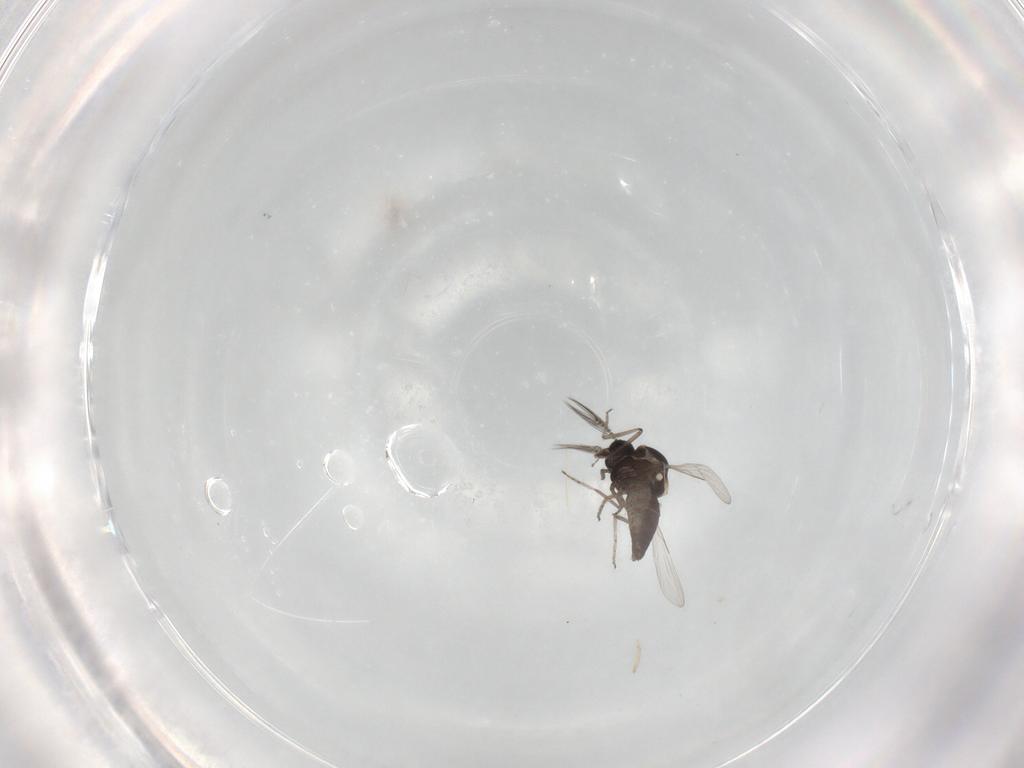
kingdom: Animalia
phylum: Arthropoda
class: Insecta
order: Diptera
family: Ceratopogonidae
